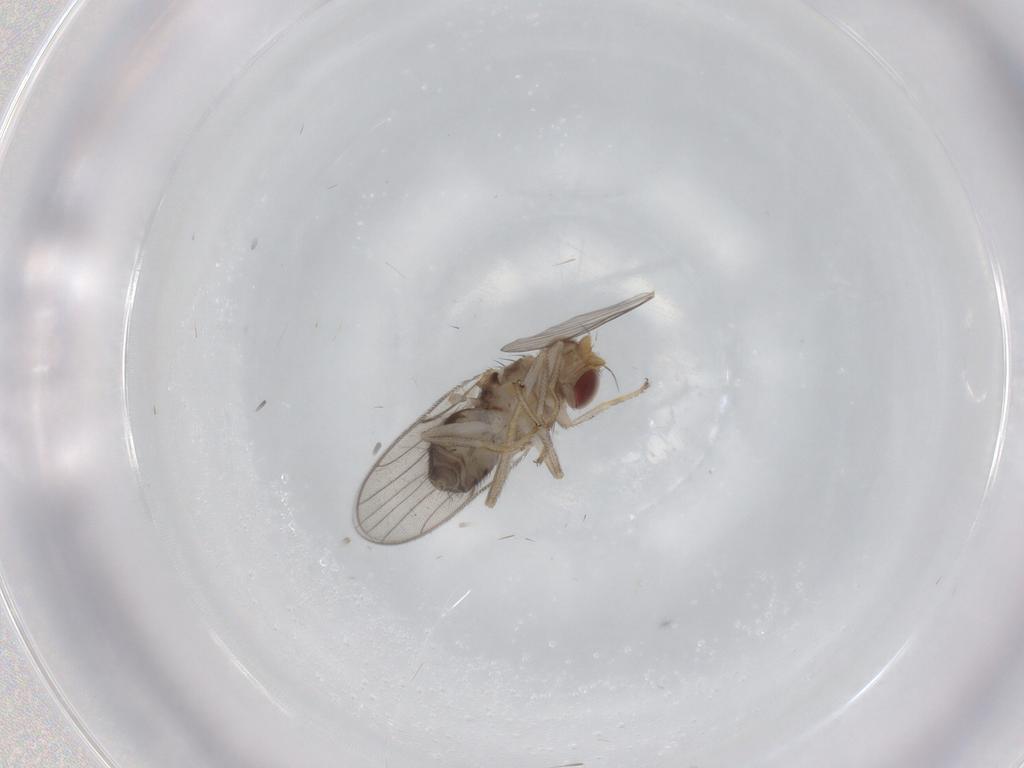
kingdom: Animalia
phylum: Arthropoda
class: Insecta
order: Diptera
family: Chloropidae
